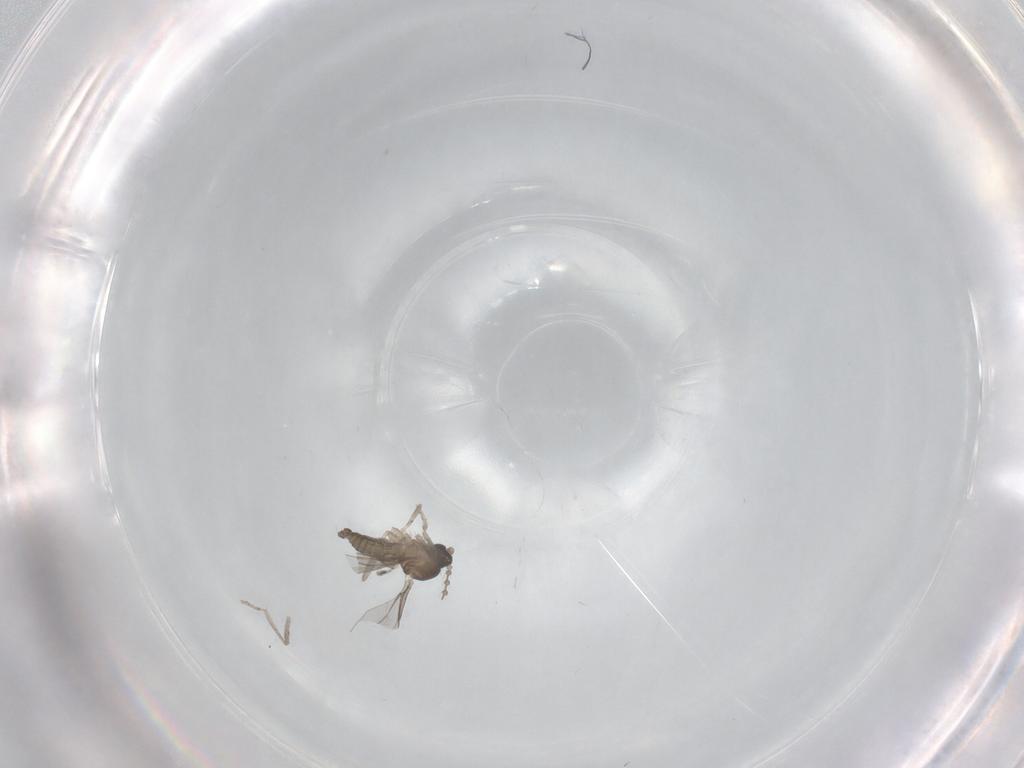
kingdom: Animalia
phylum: Arthropoda
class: Insecta
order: Diptera
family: Cecidomyiidae
